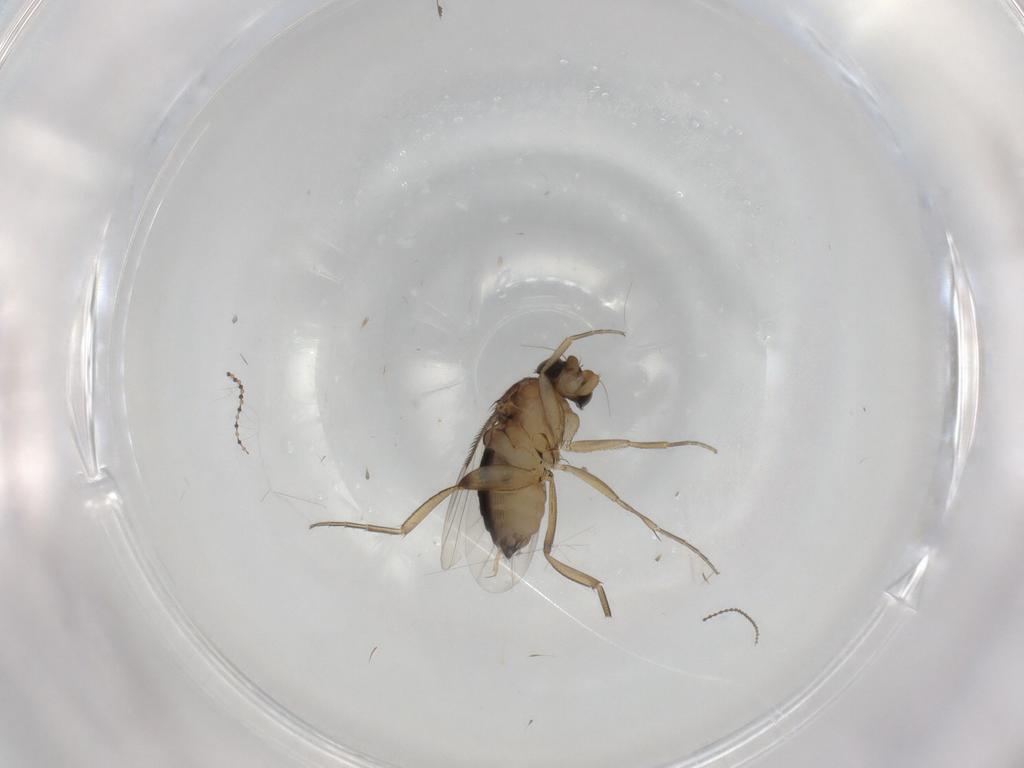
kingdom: Animalia
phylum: Arthropoda
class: Insecta
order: Diptera
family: Cecidomyiidae
